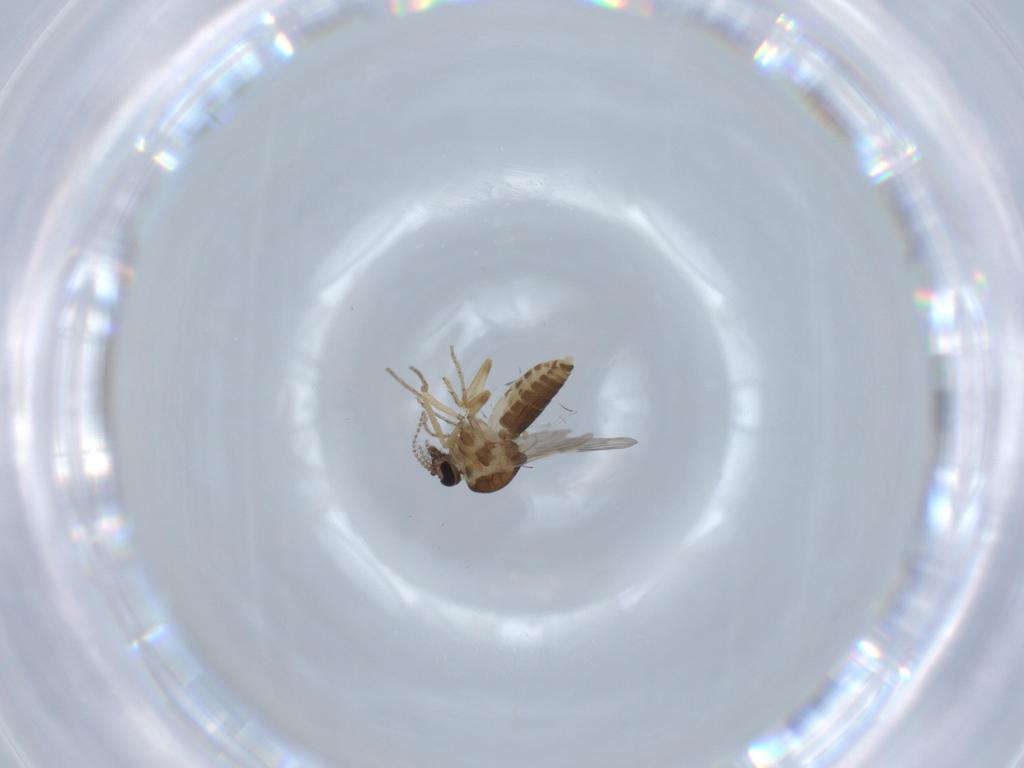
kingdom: Animalia
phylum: Arthropoda
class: Insecta
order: Diptera
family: Ceratopogonidae
